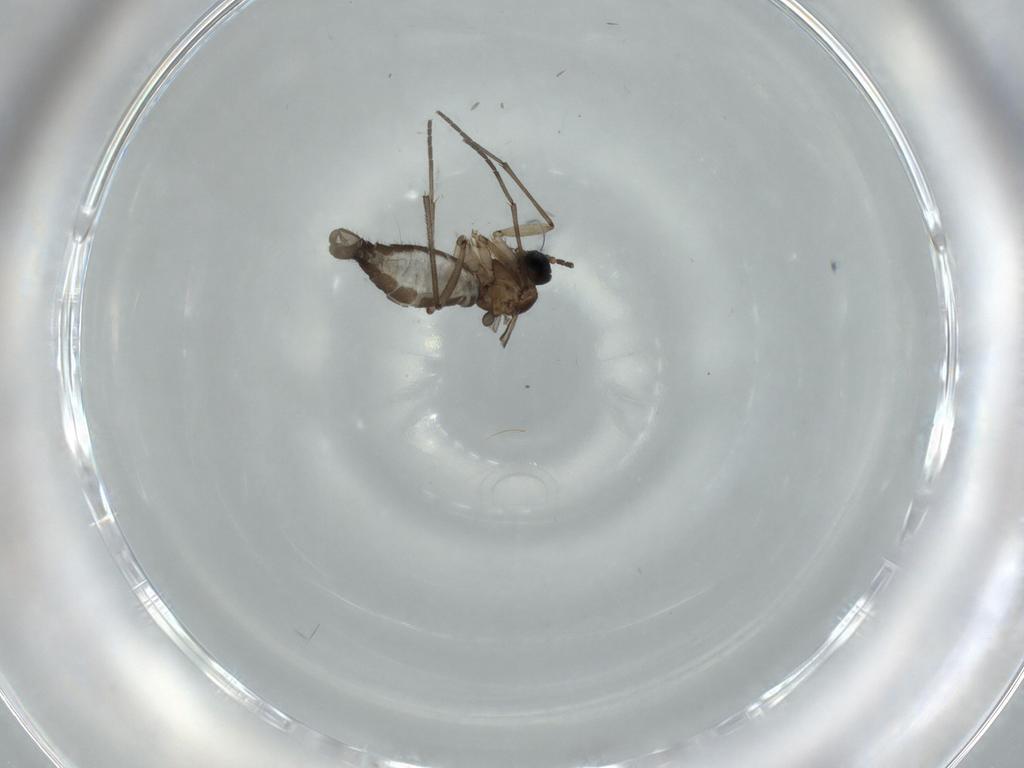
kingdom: Animalia
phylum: Arthropoda
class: Insecta
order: Diptera
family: Sciaridae
